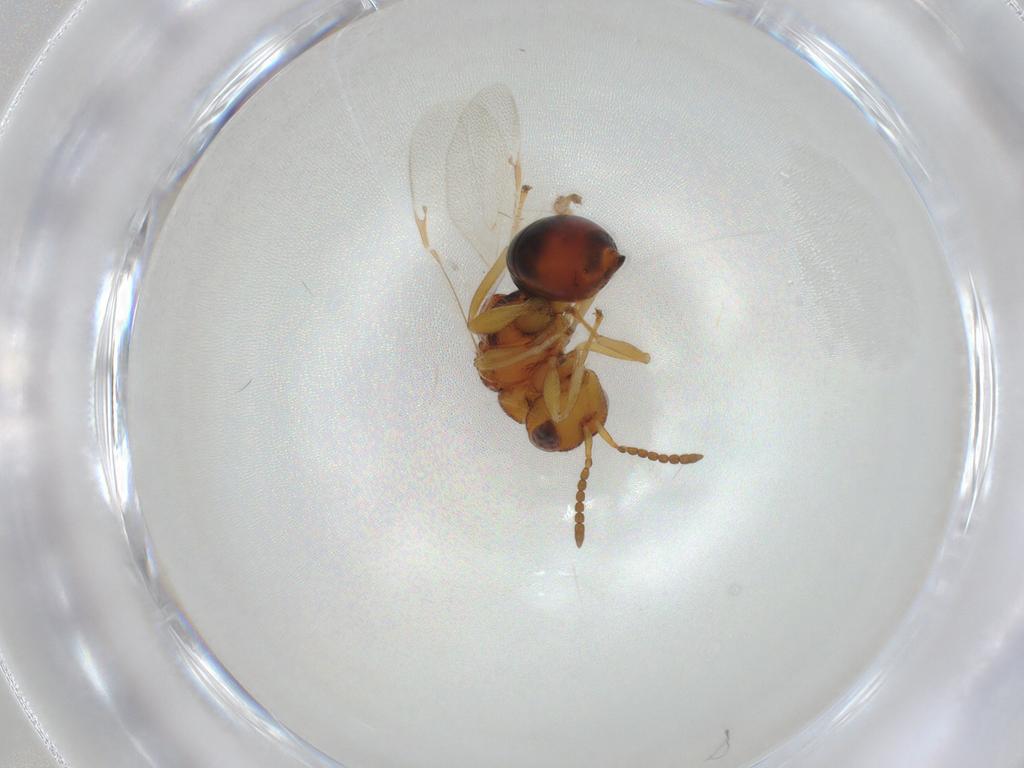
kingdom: Animalia
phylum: Arthropoda
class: Insecta
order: Hymenoptera
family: Eurytomidae
